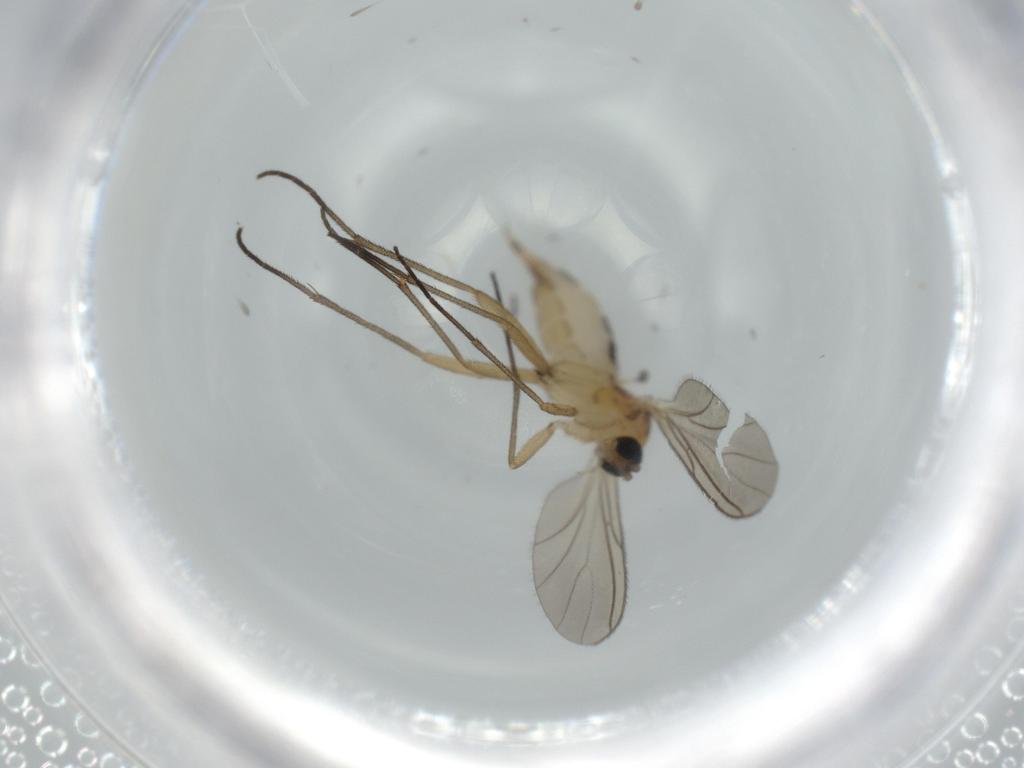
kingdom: Animalia
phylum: Arthropoda
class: Insecta
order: Diptera
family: Sciaridae
